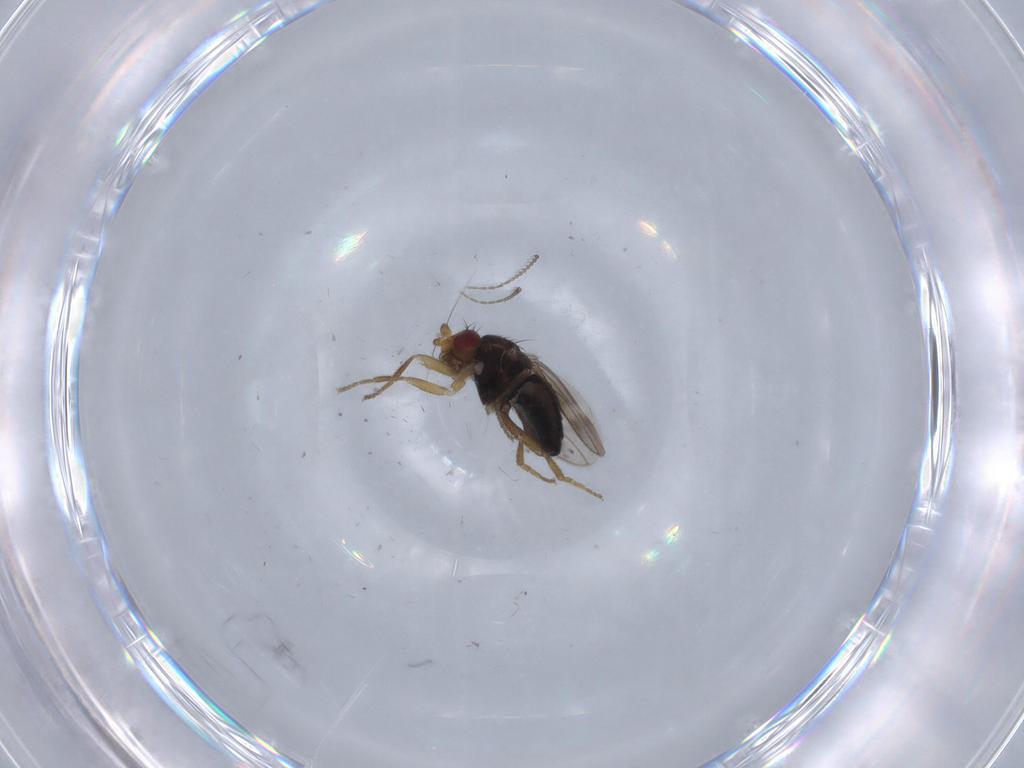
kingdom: Animalia
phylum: Arthropoda
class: Insecta
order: Diptera
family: Sphaeroceridae
